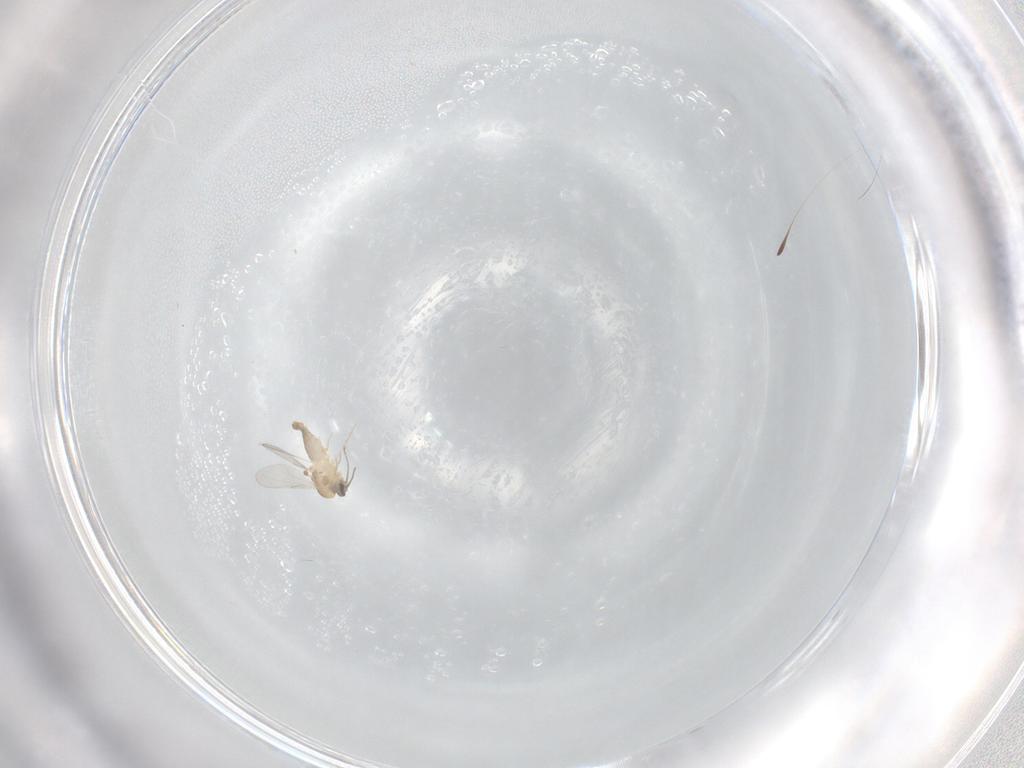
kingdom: Animalia
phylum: Arthropoda
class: Insecta
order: Diptera
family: Ceratopogonidae
